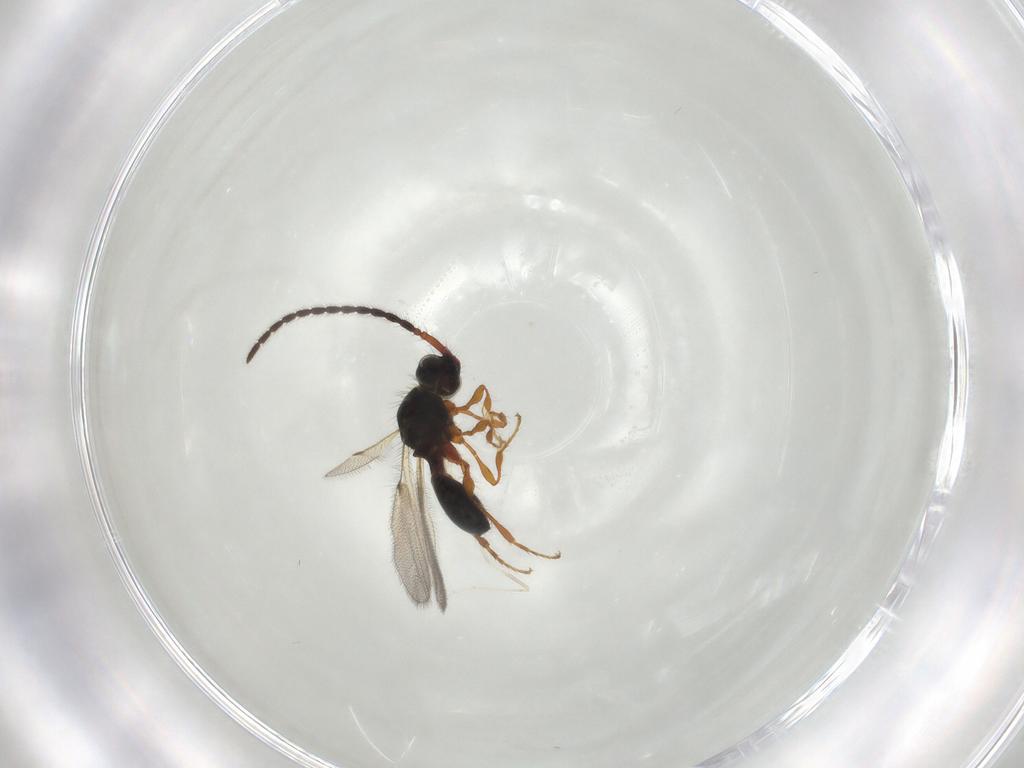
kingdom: Animalia
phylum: Arthropoda
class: Insecta
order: Hymenoptera
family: Diapriidae
